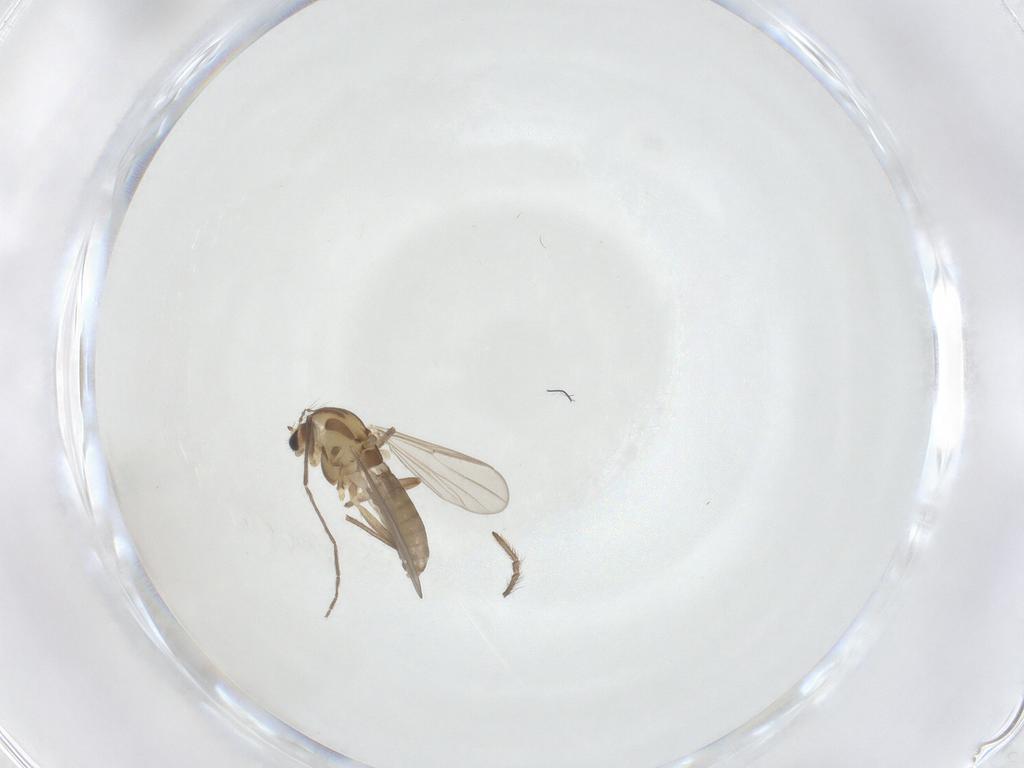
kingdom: Animalia
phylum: Arthropoda
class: Insecta
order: Diptera
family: Chironomidae
